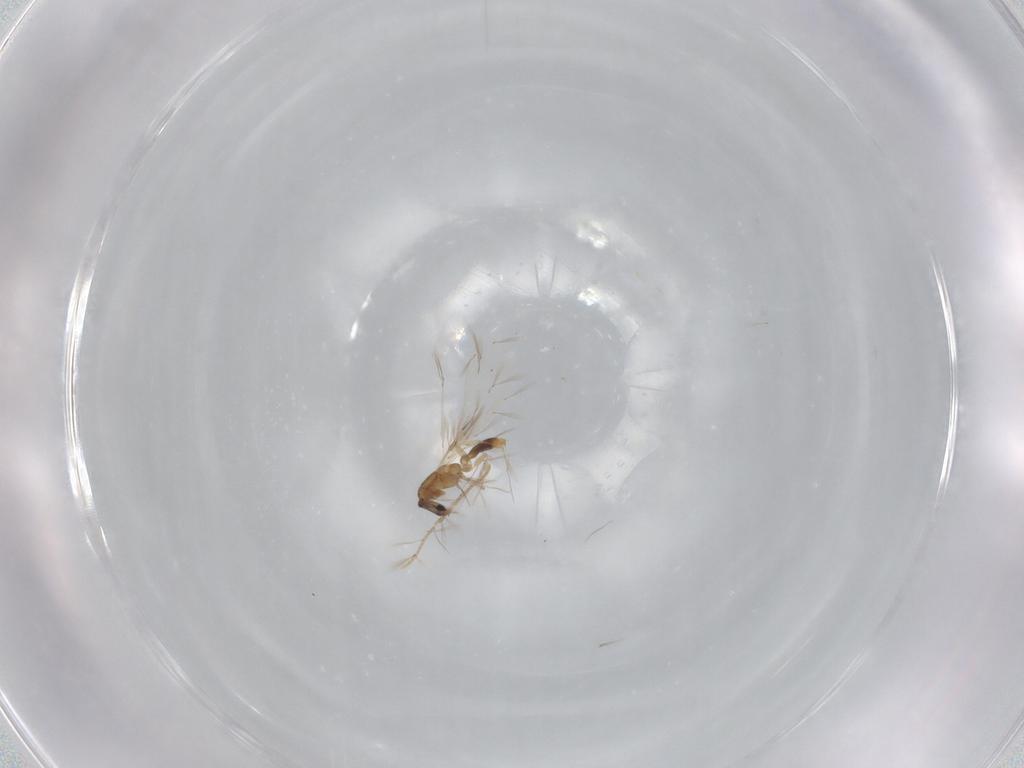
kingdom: Animalia
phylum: Arthropoda
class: Insecta
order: Hymenoptera
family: Formicidae
